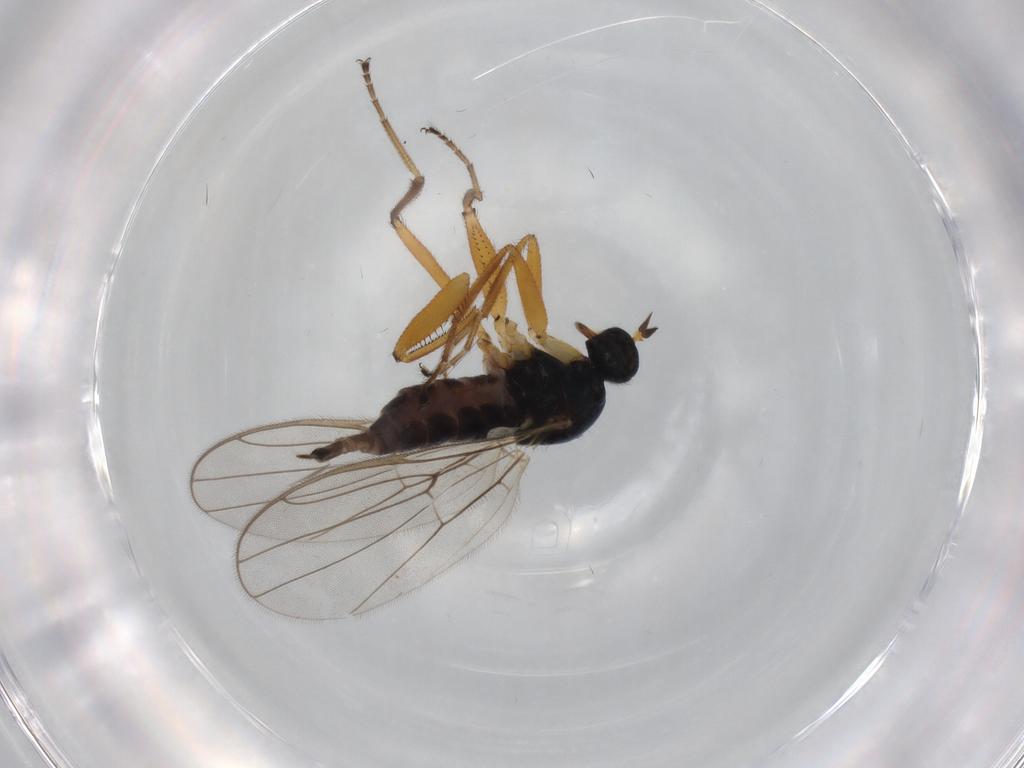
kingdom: Animalia
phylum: Arthropoda
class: Insecta
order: Diptera
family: Hybotidae
